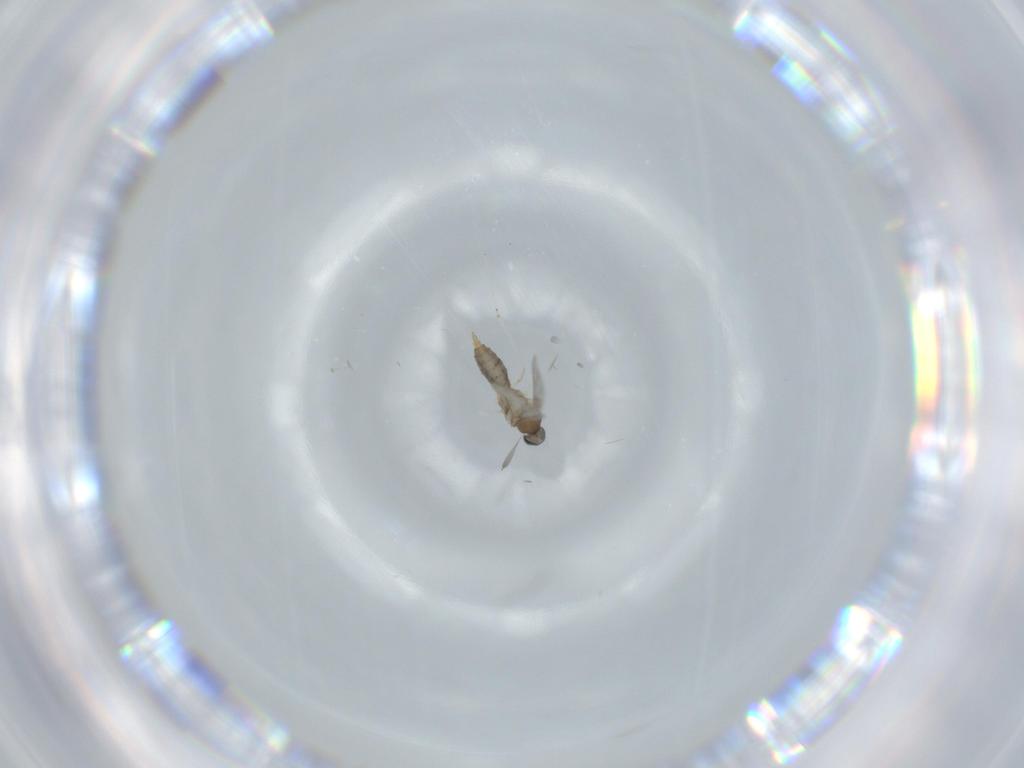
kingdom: Animalia
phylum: Arthropoda
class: Insecta
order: Diptera
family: Cecidomyiidae
